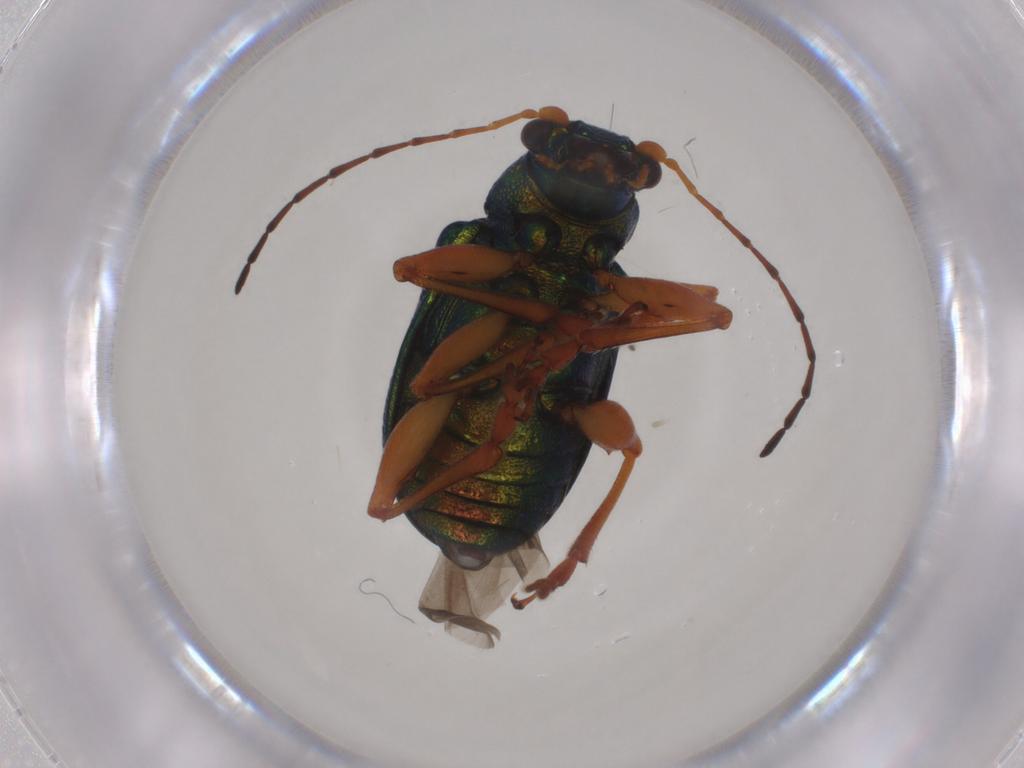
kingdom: Animalia
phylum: Arthropoda
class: Insecta
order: Coleoptera
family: Chrysomelidae
